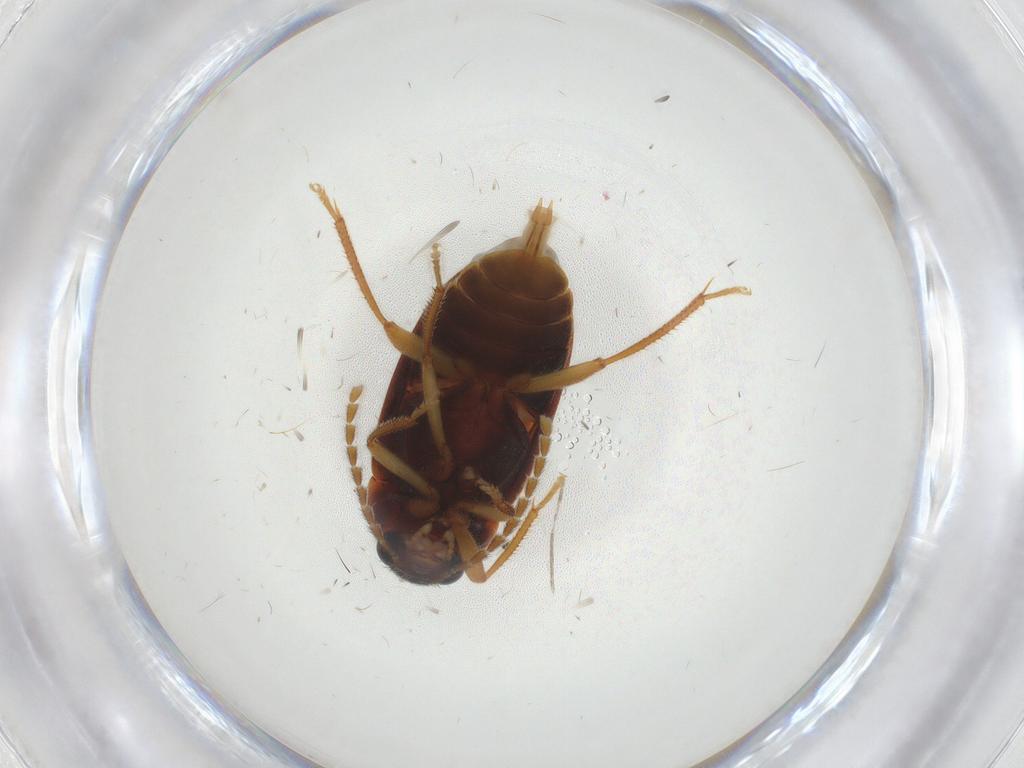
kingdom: Animalia
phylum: Arthropoda
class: Insecta
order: Coleoptera
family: Ptilodactylidae
